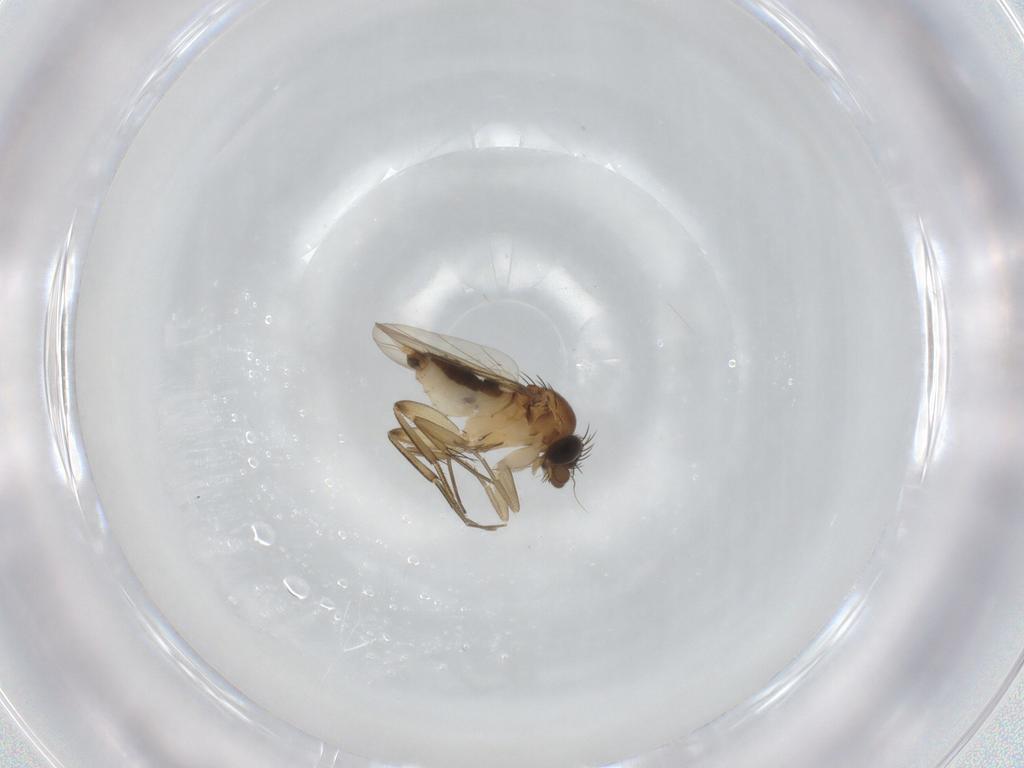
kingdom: Animalia
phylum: Arthropoda
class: Insecta
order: Diptera
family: Phoridae
